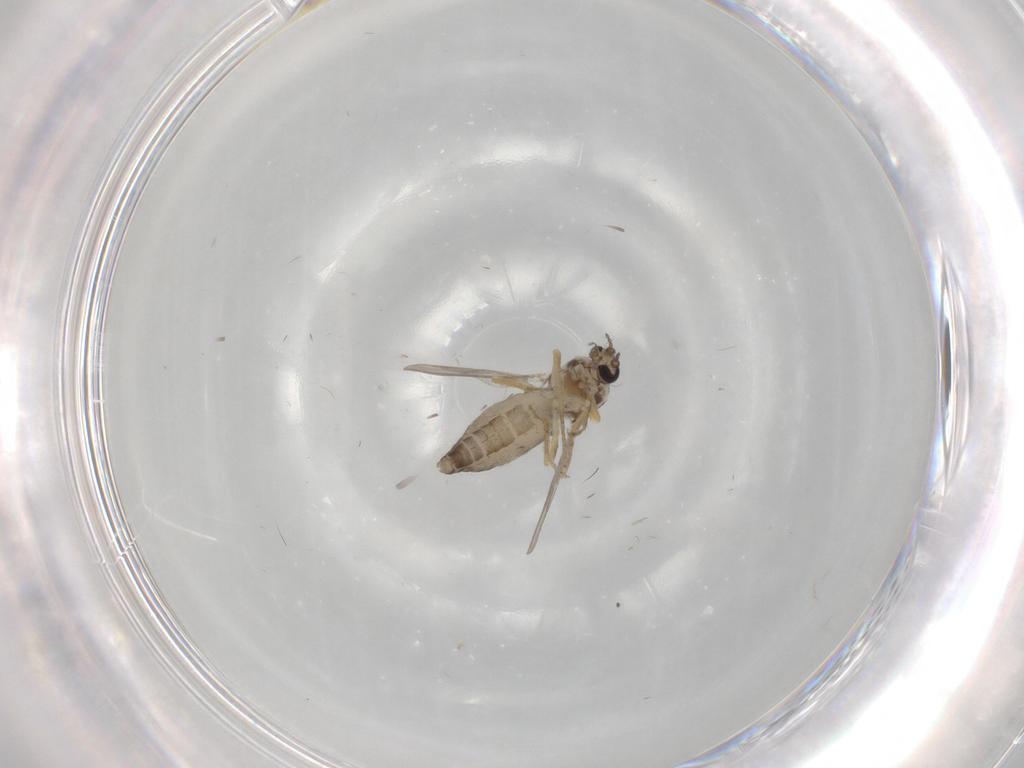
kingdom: Animalia
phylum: Arthropoda
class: Insecta
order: Diptera
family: Ceratopogonidae
